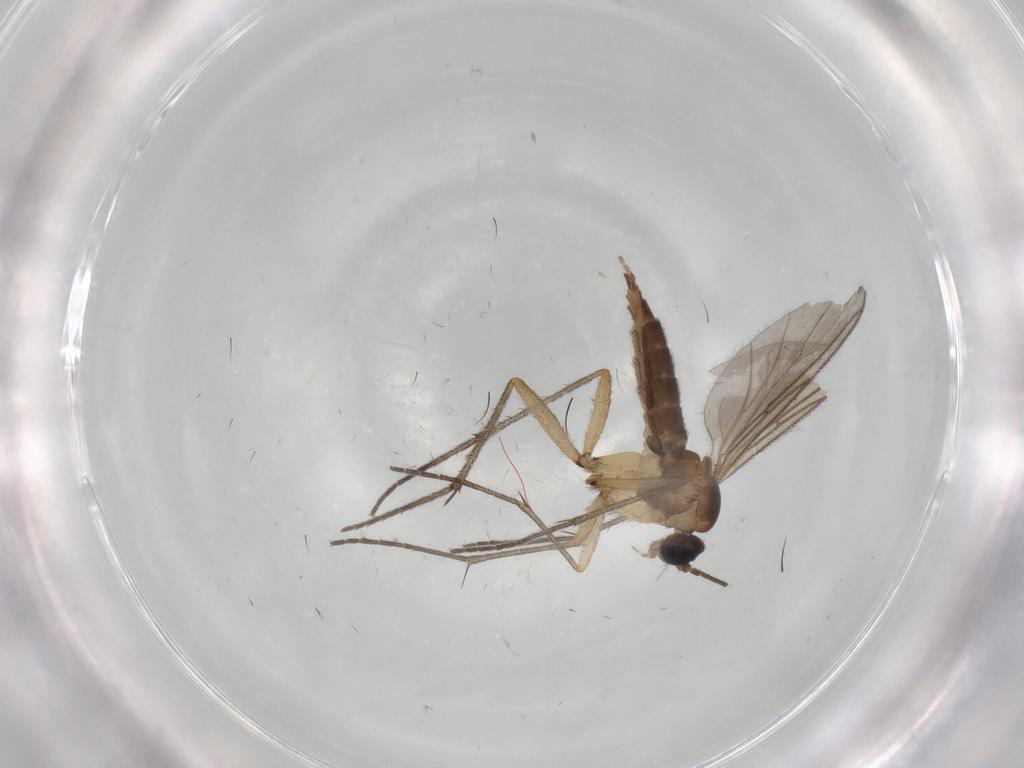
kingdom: Animalia
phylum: Arthropoda
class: Insecta
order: Diptera
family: Sciaridae
